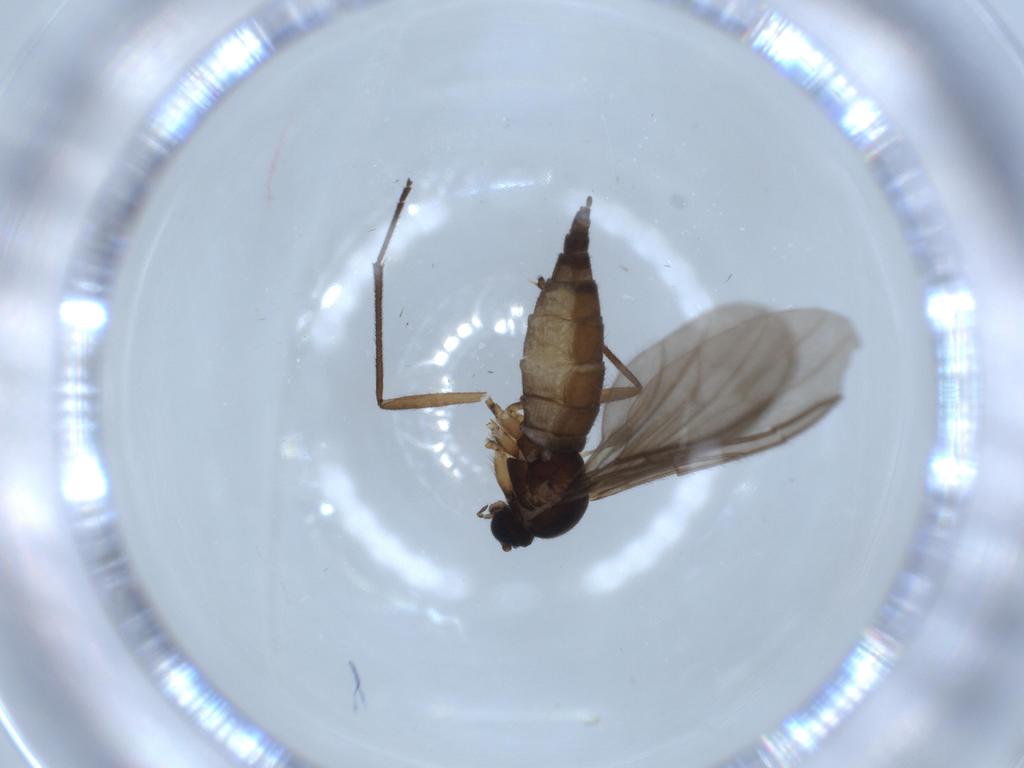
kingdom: Animalia
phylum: Arthropoda
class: Insecta
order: Diptera
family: Sciaridae
